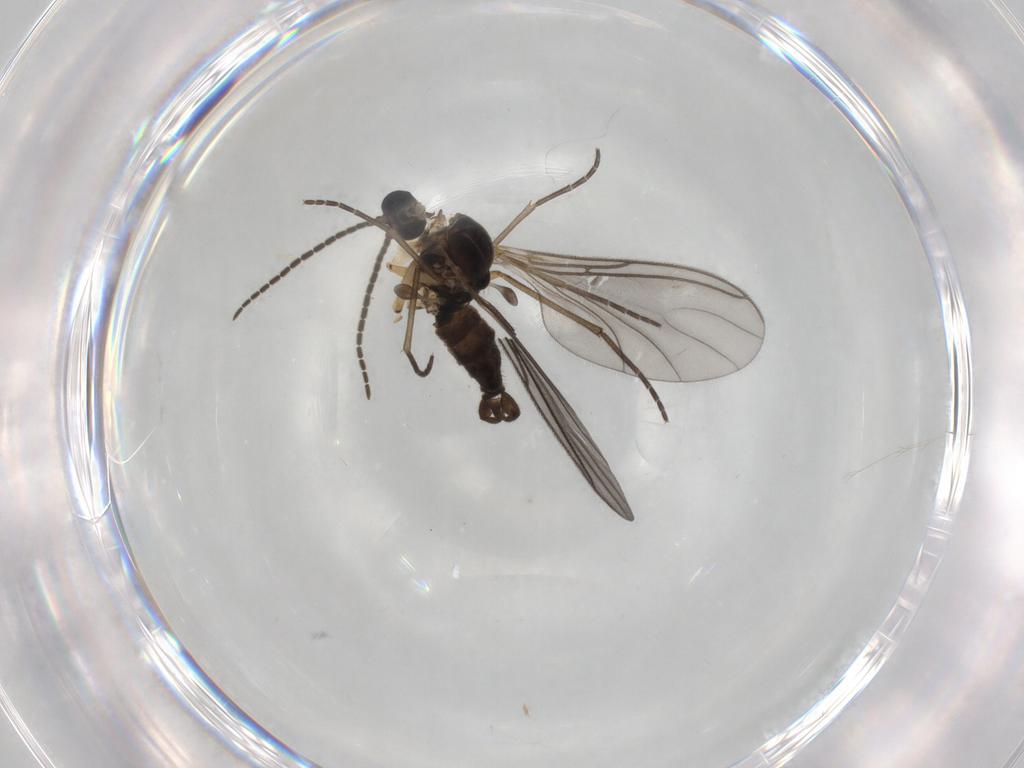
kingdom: Animalia
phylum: Arthropoda
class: Insecta
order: Diptera
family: Sciaridae
